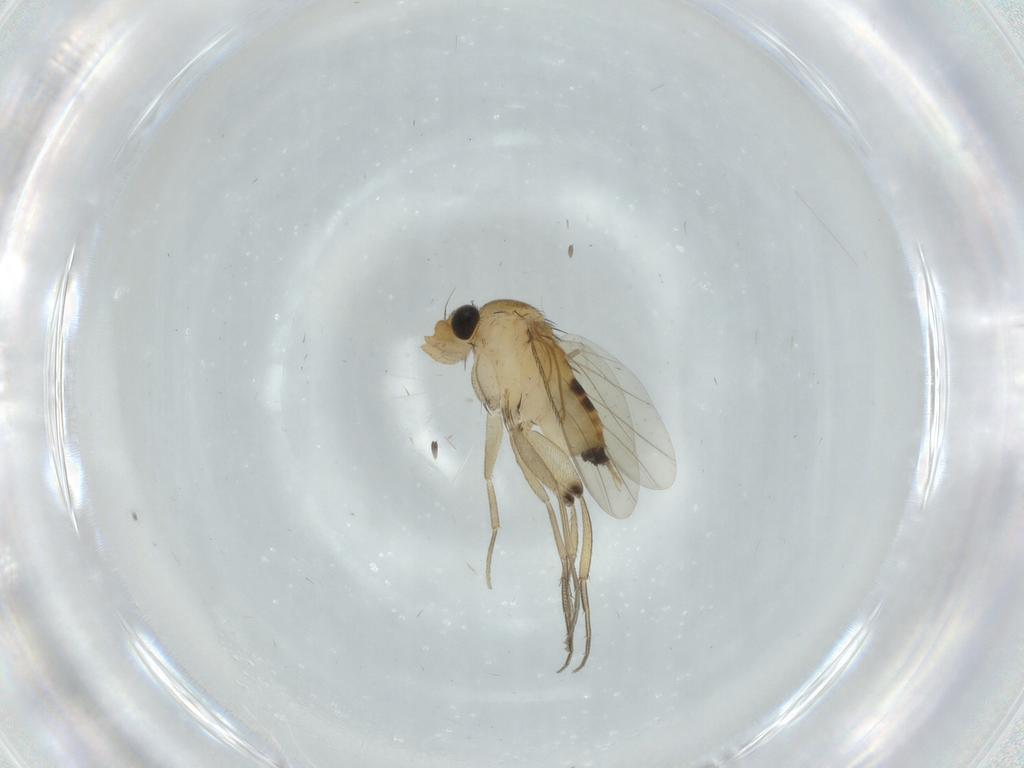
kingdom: Animalia
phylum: Arthropoda
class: Insecta
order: Diptera
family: Phoridae
